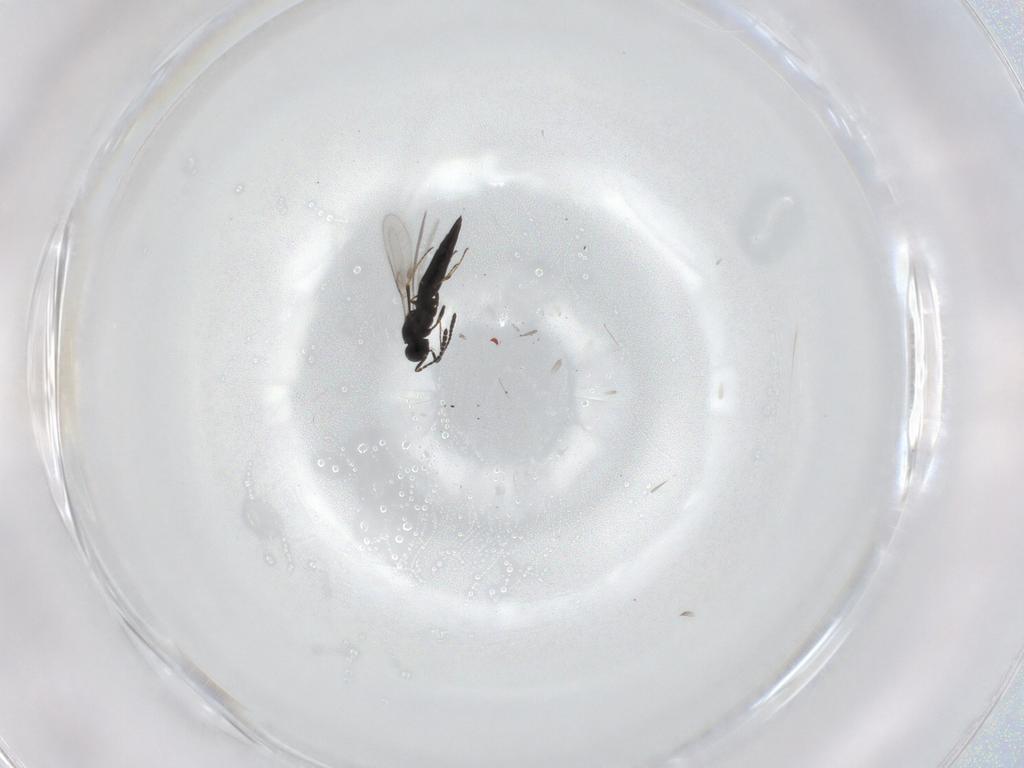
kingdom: Animalia
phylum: Arthropoda
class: Insecta
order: Hymenoptera
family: Scelionidae
